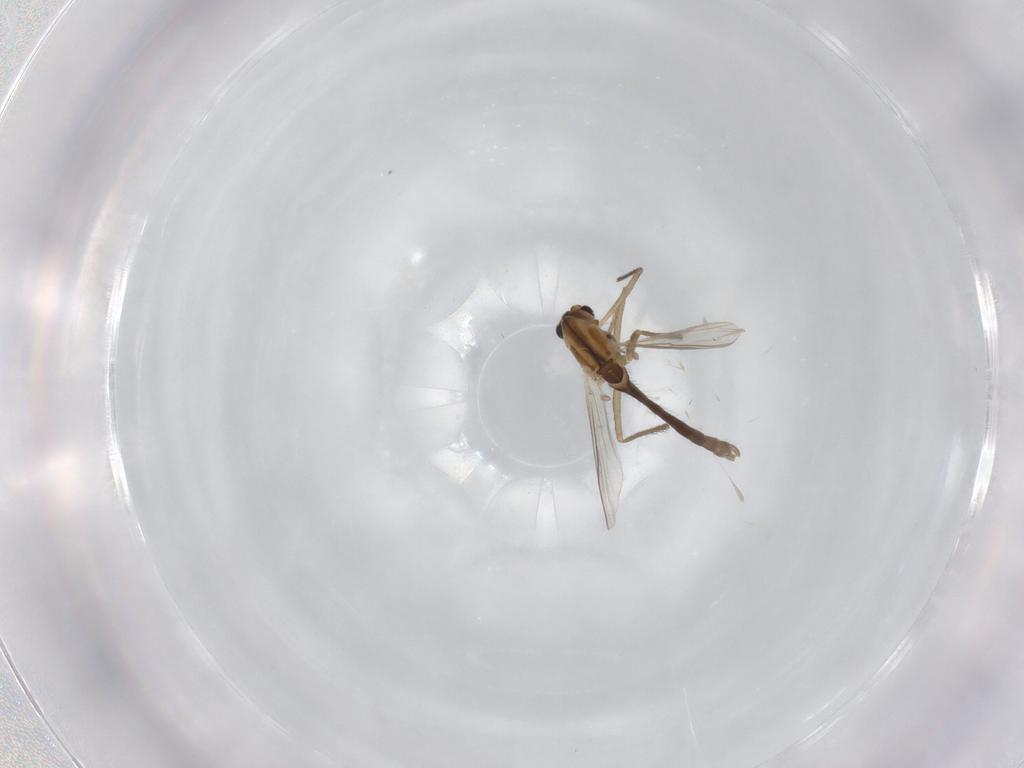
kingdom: Animalia
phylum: Arthropoda
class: Insecta
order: Diptera
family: Chironomidae
